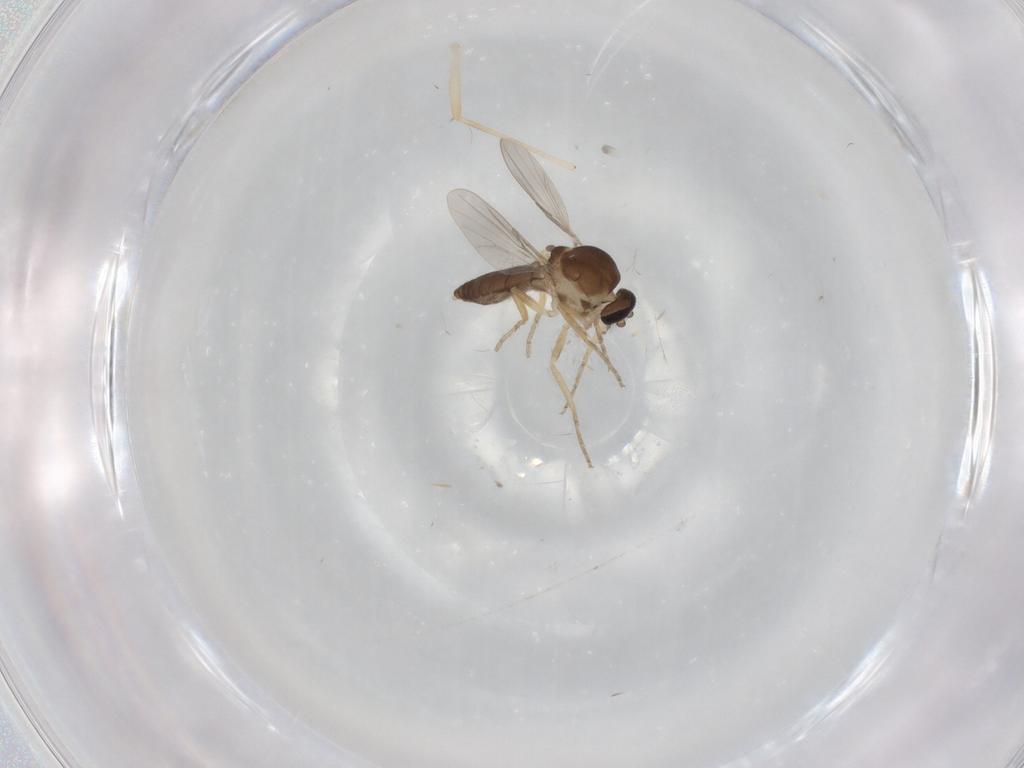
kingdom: Animalia
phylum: Arthropoda
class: Insecta
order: Diptera
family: Ceratopogonidae
